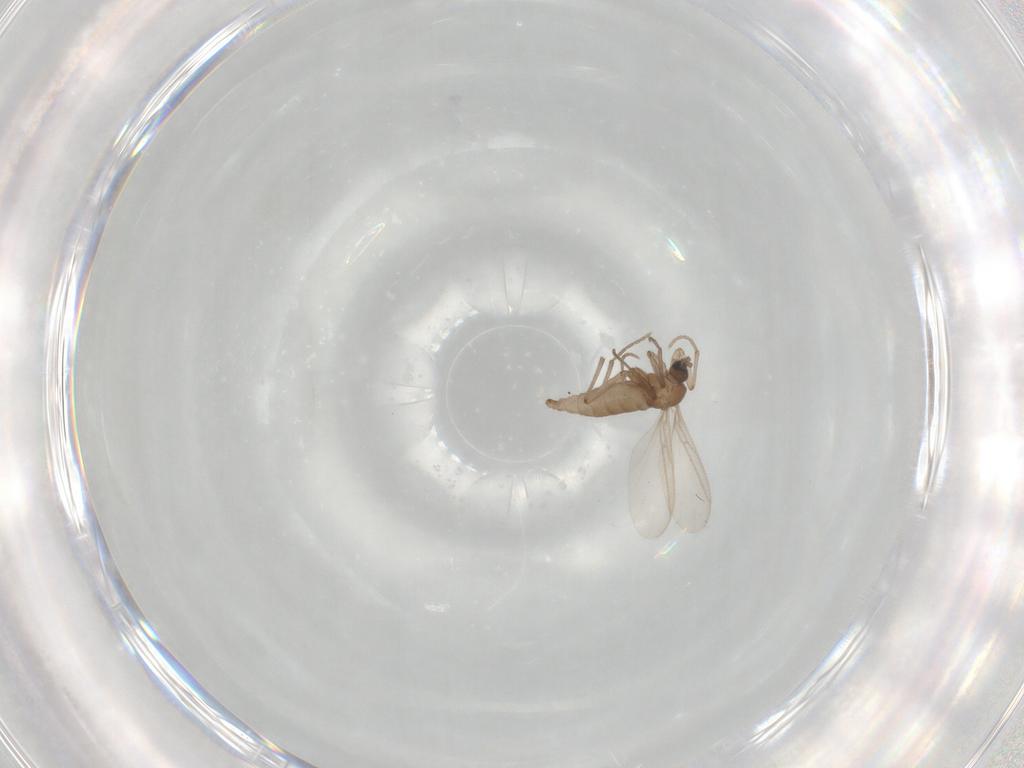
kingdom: Animalia
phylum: Arthropoda
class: Insecta
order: Diptera
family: Sciaridae
